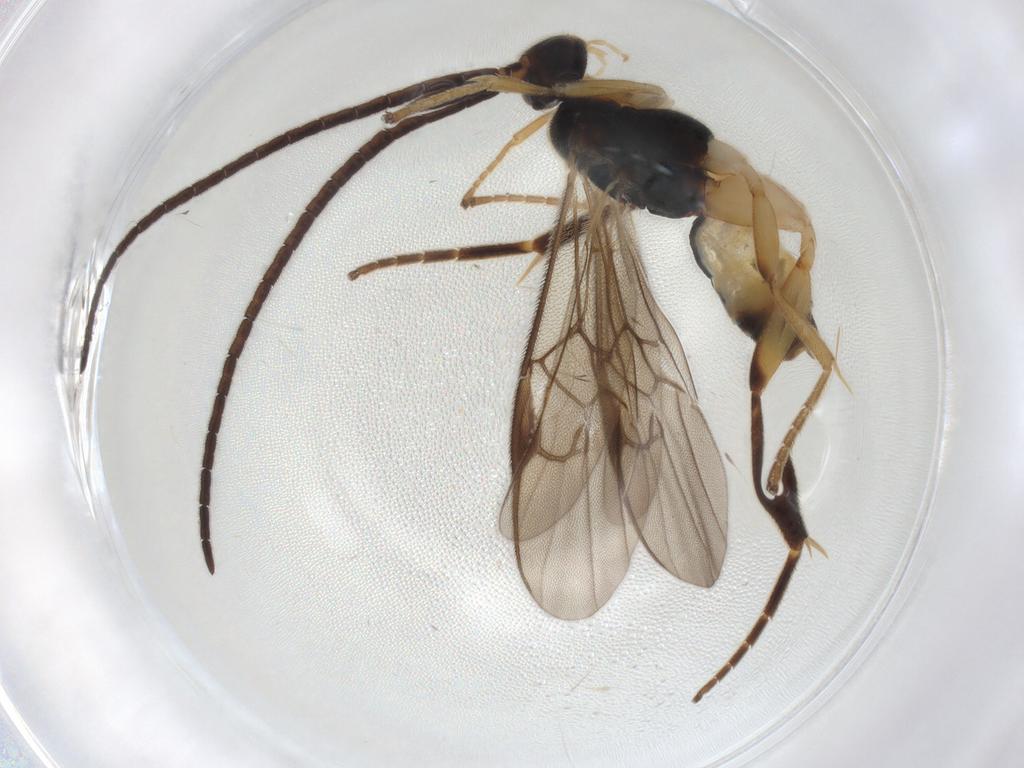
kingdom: Animalia
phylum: Arthropoda
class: Insecta
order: Hymenoptera
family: Braconidae
